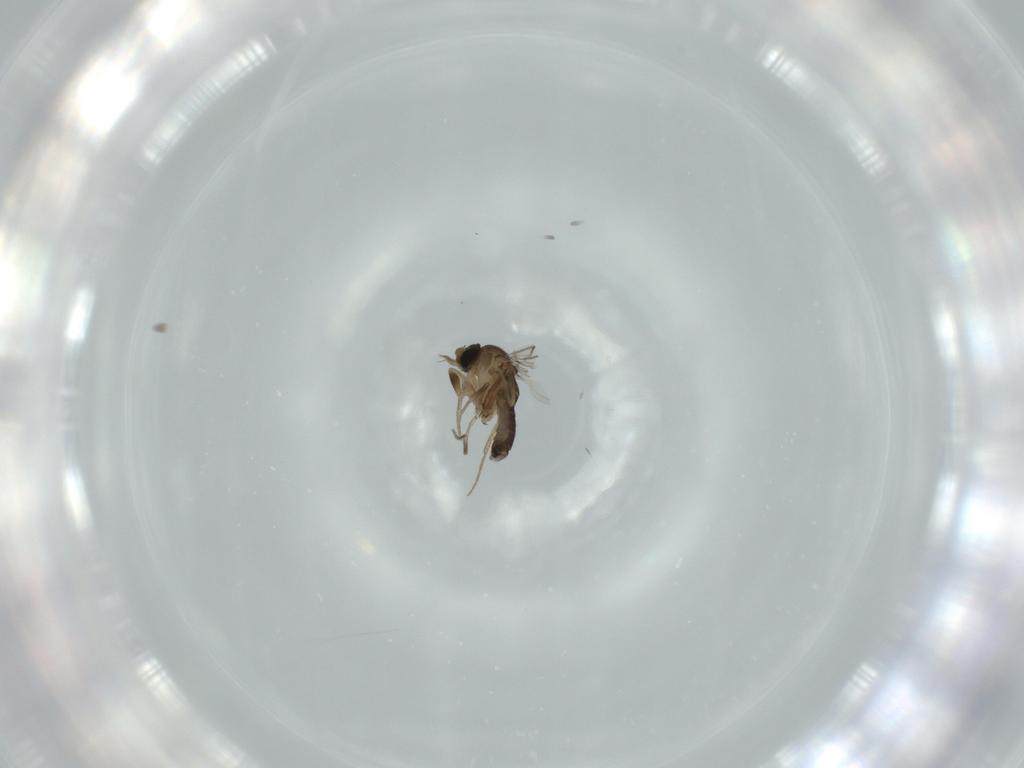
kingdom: Animalia
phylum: Arthropoda
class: Insecta
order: Diptera
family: Phoridae
